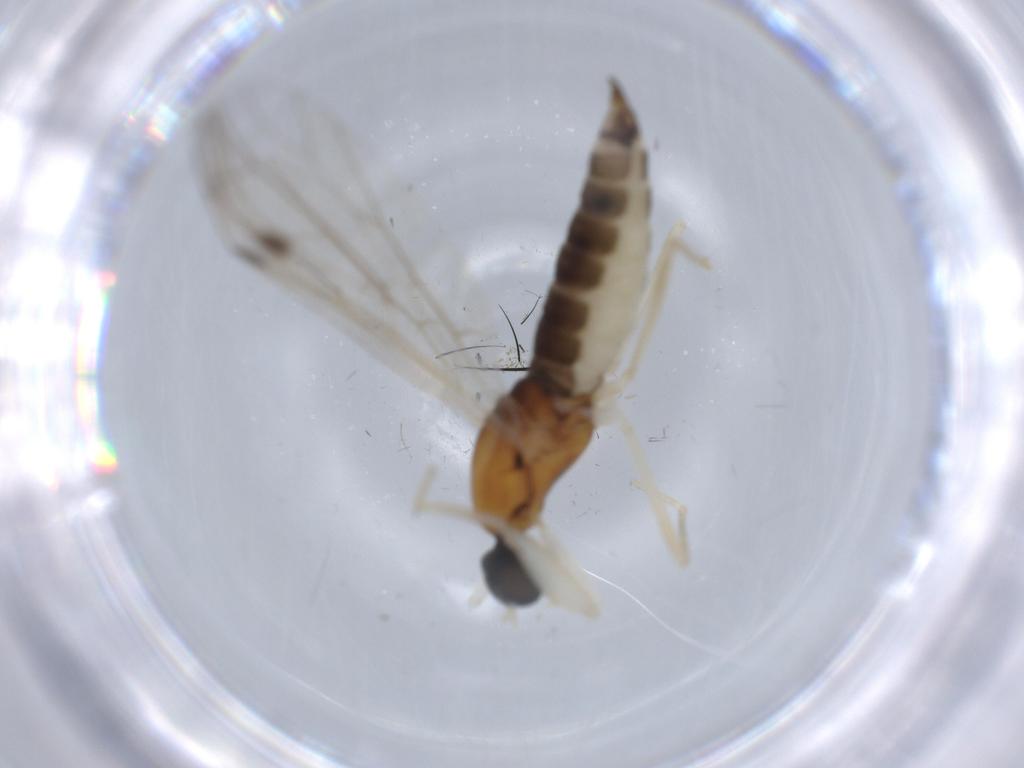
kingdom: Animalia
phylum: Arthropoda
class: Insecta
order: Diptera
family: Empididae
